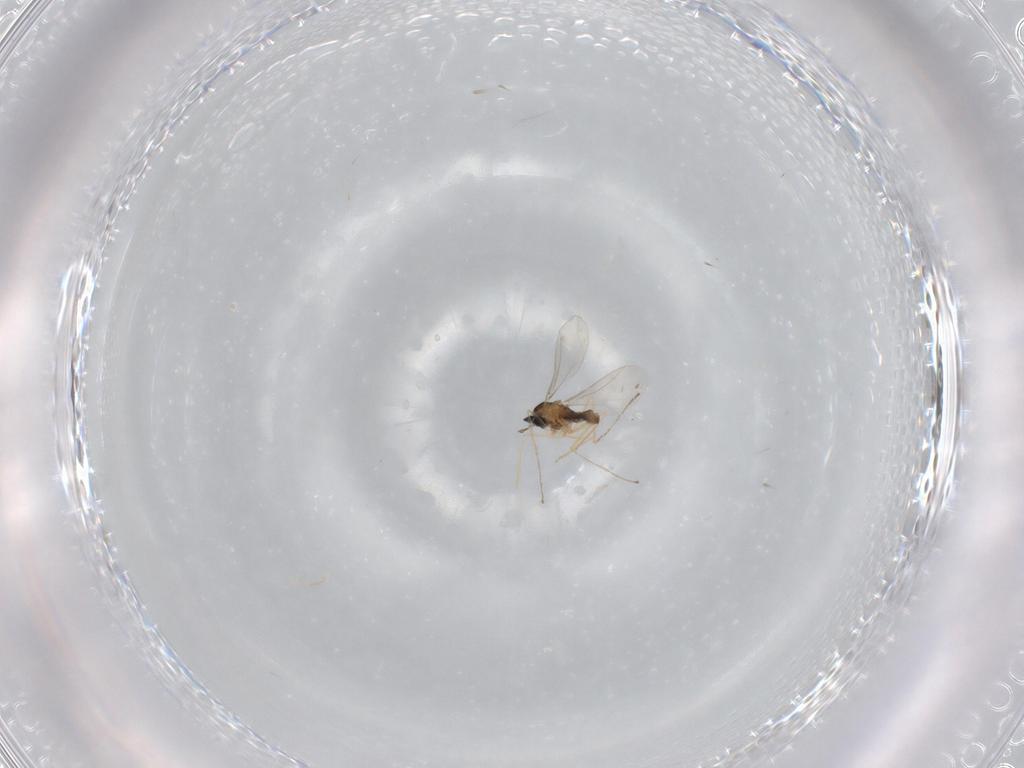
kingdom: Animalia
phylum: Arthropoda
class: Insecta
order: Diptera
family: Cecidomyiidae
